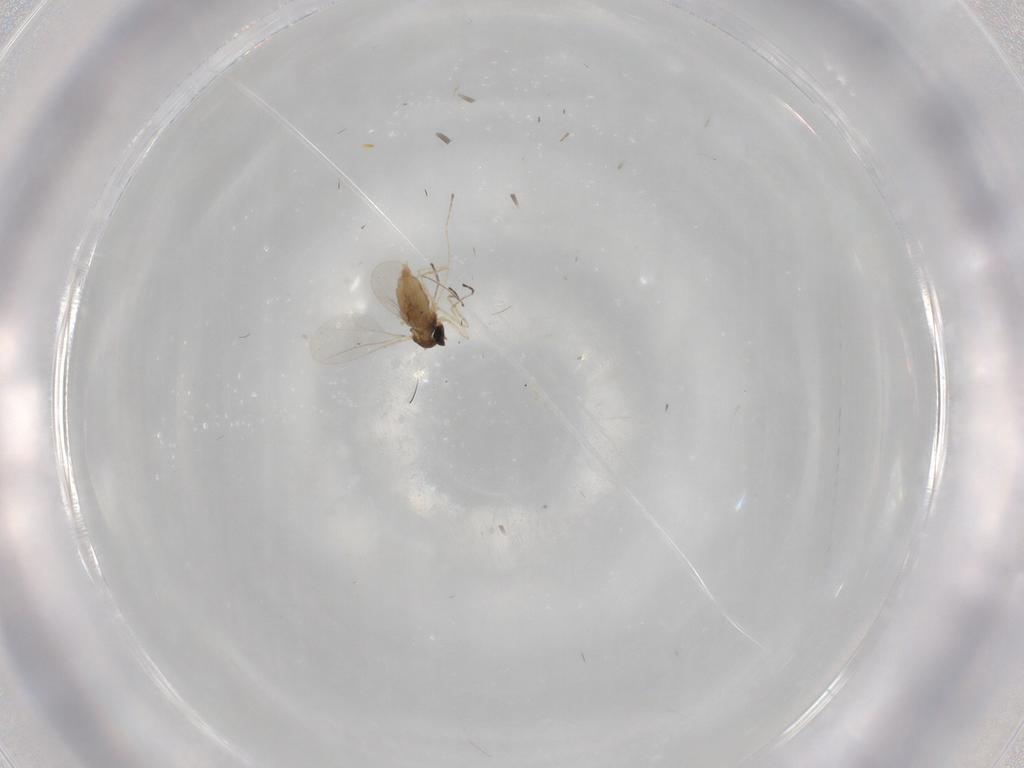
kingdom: Animalia
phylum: Arthropoda
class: Insecta
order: Diptera
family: Cecidomyiidae
